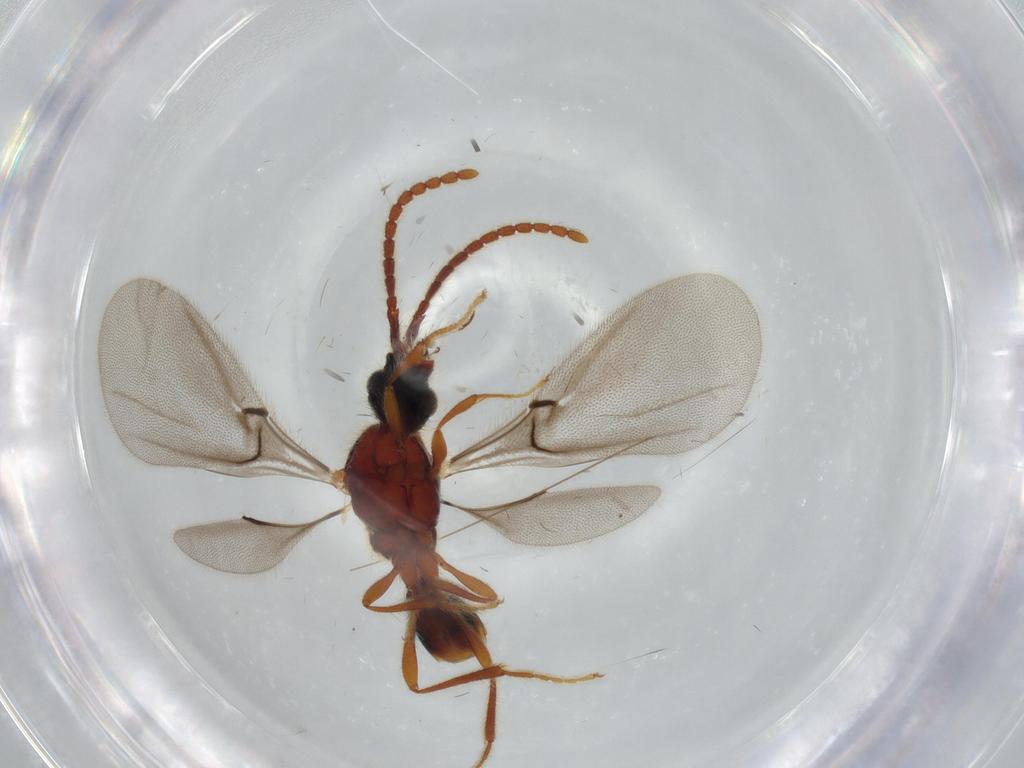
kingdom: Animalia
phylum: Arthropoda
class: Insecta
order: Hymenoptera
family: Diapriidae
